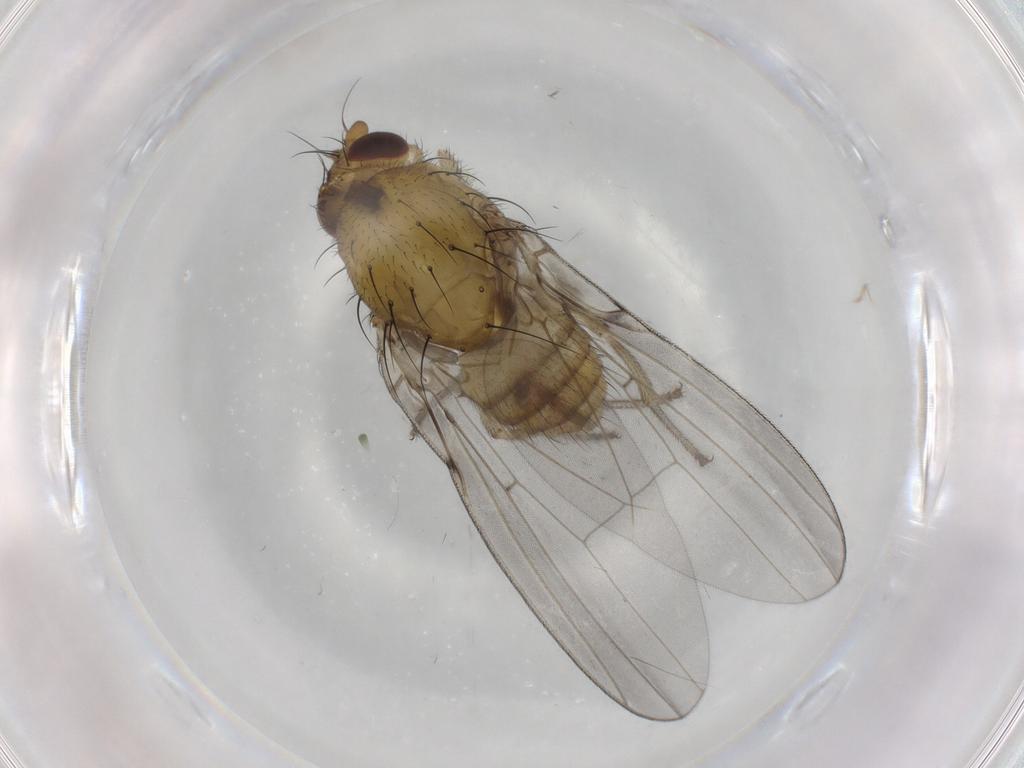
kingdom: Animalia
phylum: Arthropoda
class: Insecta
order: Diptera
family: Lauxaniidae
